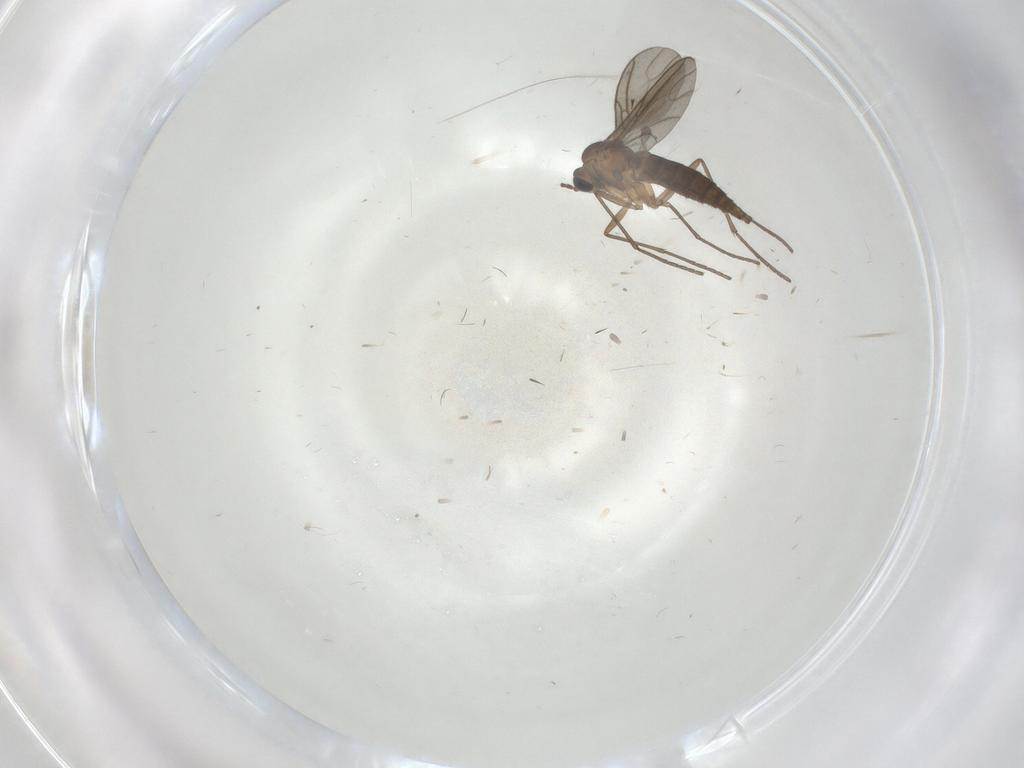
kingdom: Animalia
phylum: Arthropoda
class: Insecta
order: Diptera
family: Sciaridae
